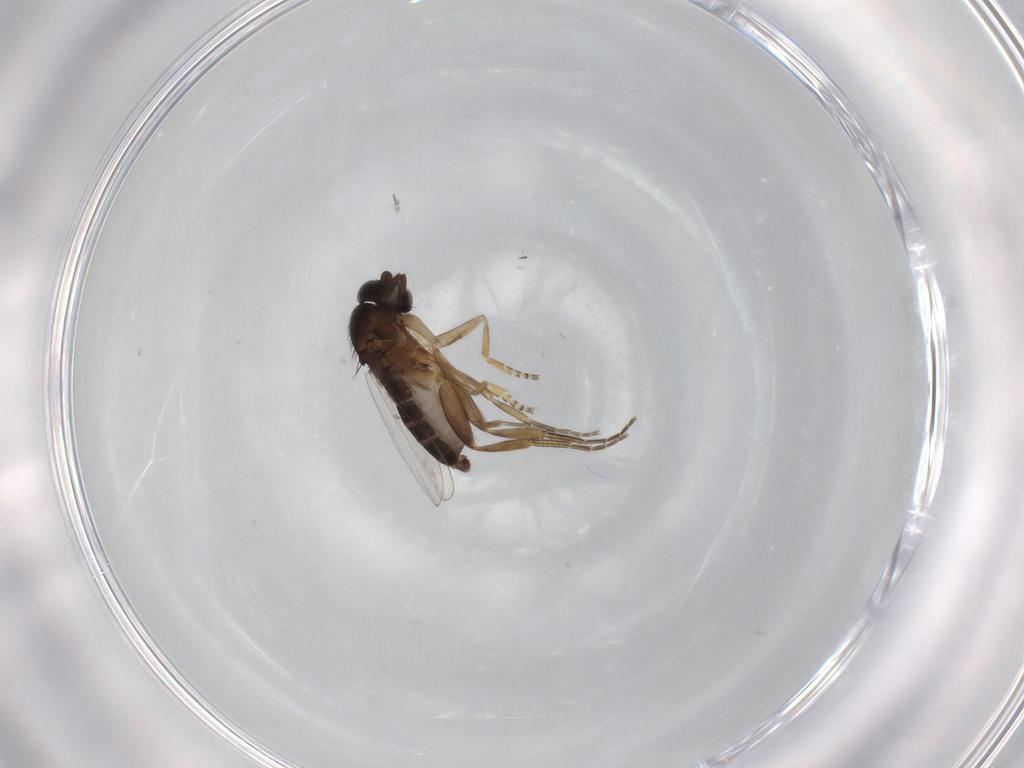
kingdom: Animalia
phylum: Arthropoda
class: Insecta
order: Diptera
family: Phoridae
